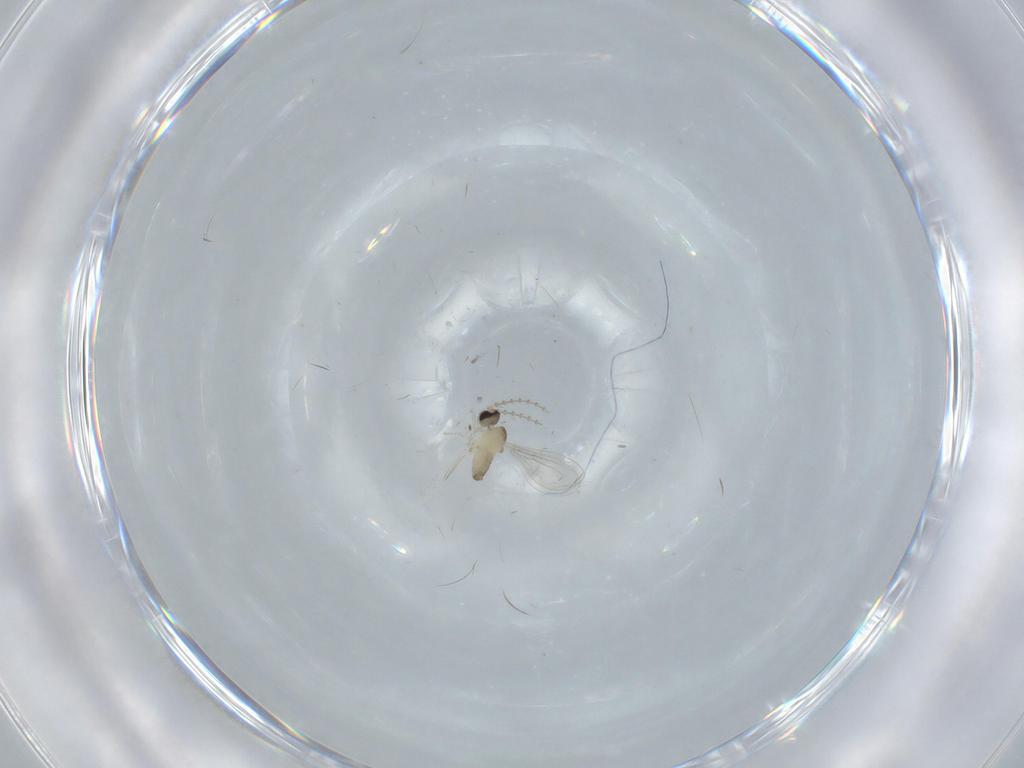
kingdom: Animalia
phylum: Arthropoda
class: Insecta
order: Diptera
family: Cecidomyiidae
